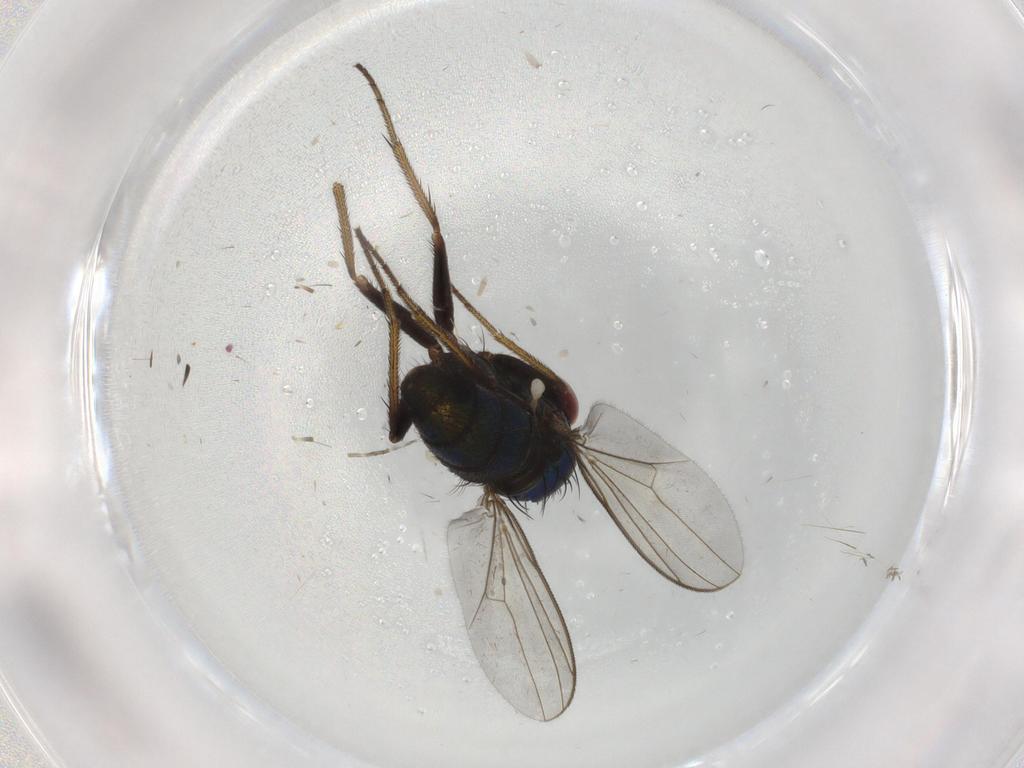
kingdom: Animalia
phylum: Arthropoda
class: Insecta
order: Diptera
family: Dolichopodidae
